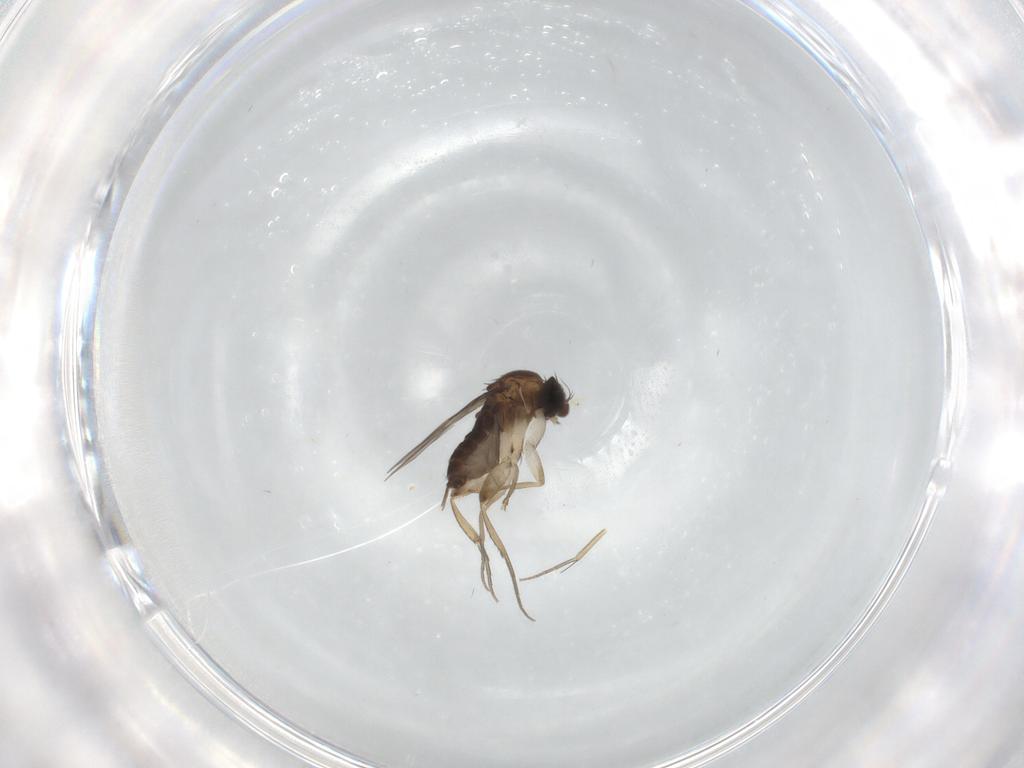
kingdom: Animalia
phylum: Arthropoda
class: Insecta
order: Diptera
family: Phoridae
